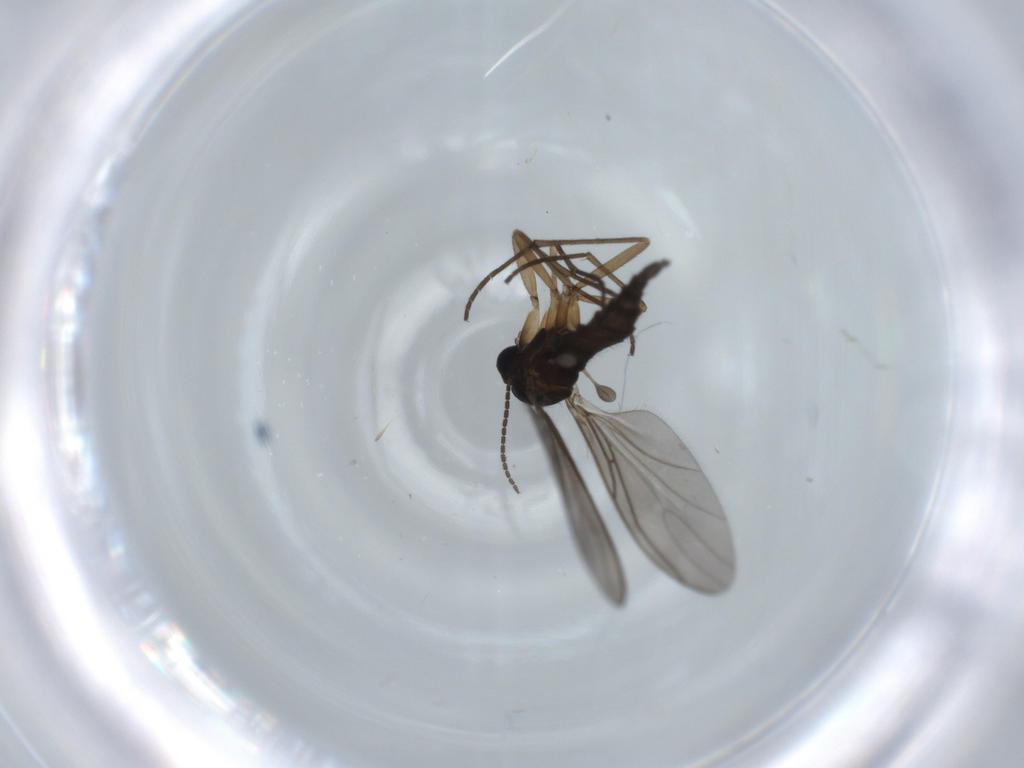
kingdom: Animalia
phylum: Arthropoda
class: Insecta
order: Diptera
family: Sciaridae
